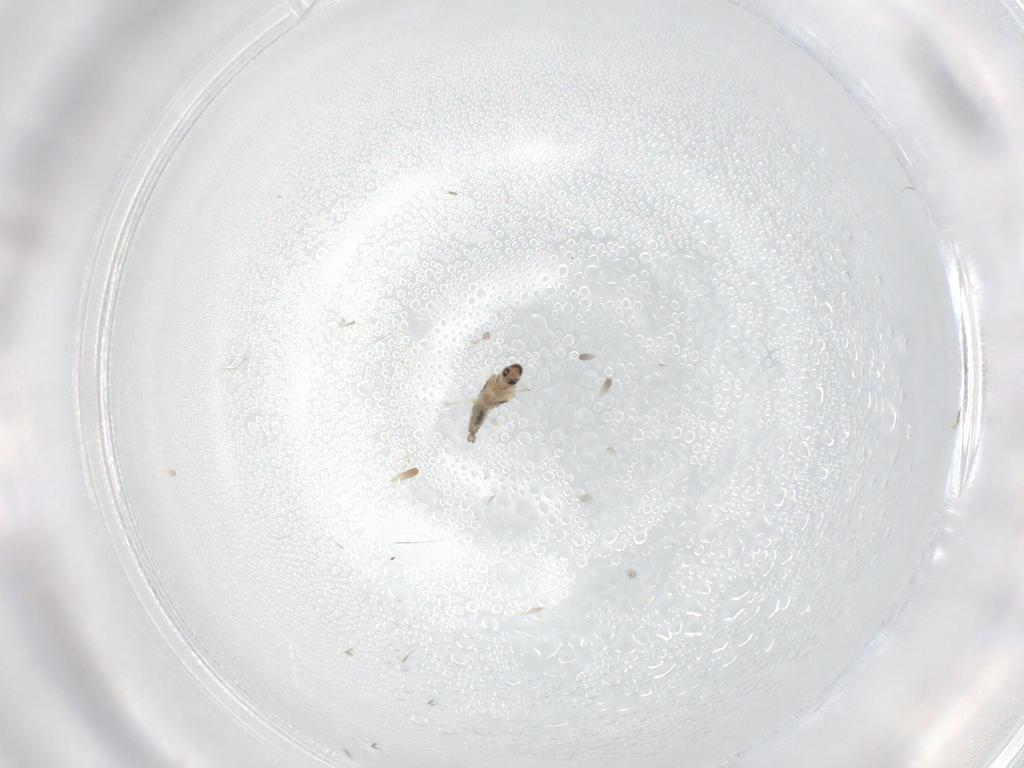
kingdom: Animalia
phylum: Arthropoda
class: Insecta
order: Diptera
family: Cecidomyiidae
